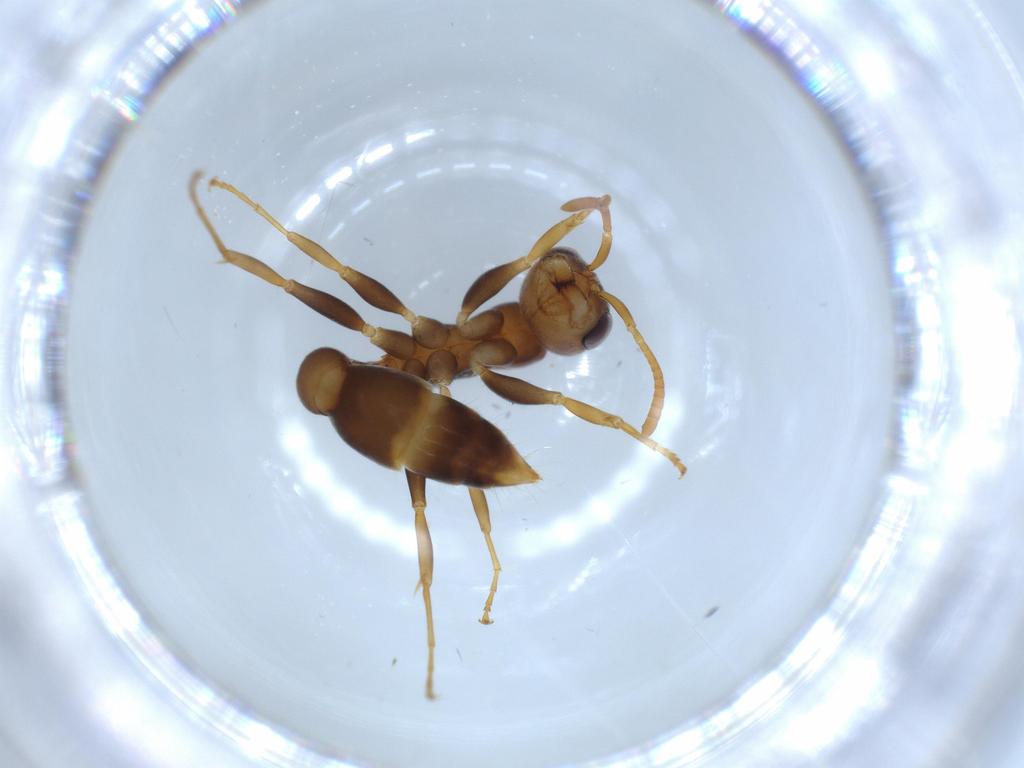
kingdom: Animalia
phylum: Arthropoda
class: Insecta
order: Hymenoptera
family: Formicidae
